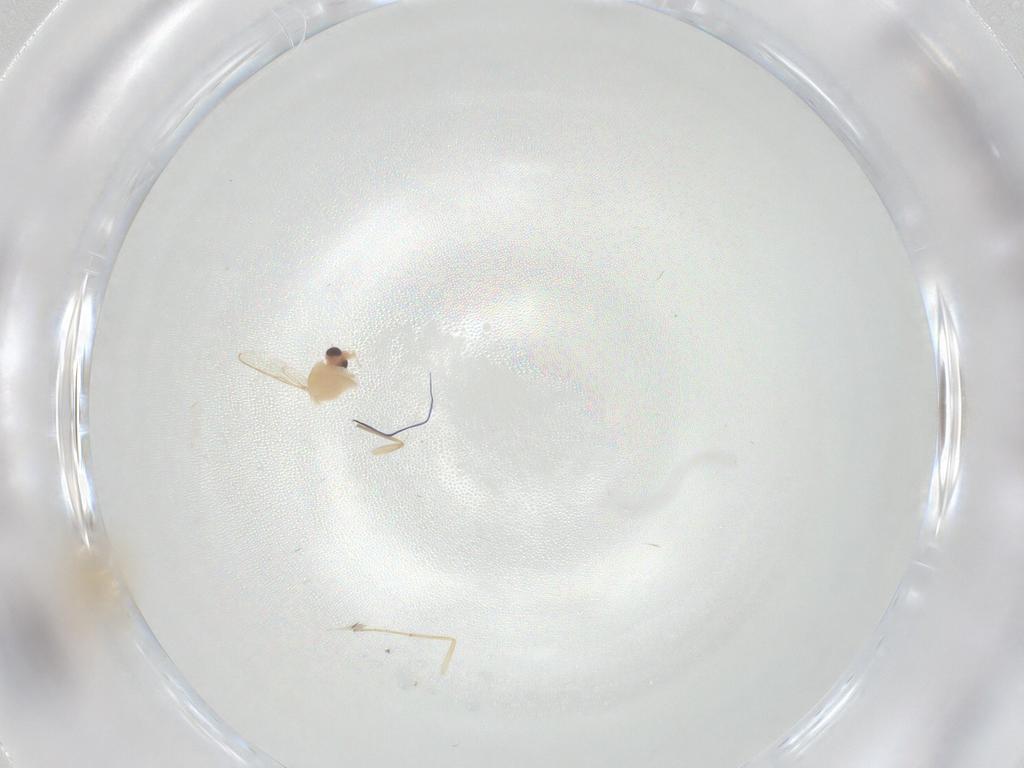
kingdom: Animalia
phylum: Arthropoda
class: Insecta
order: Diptera
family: Chironomidae
